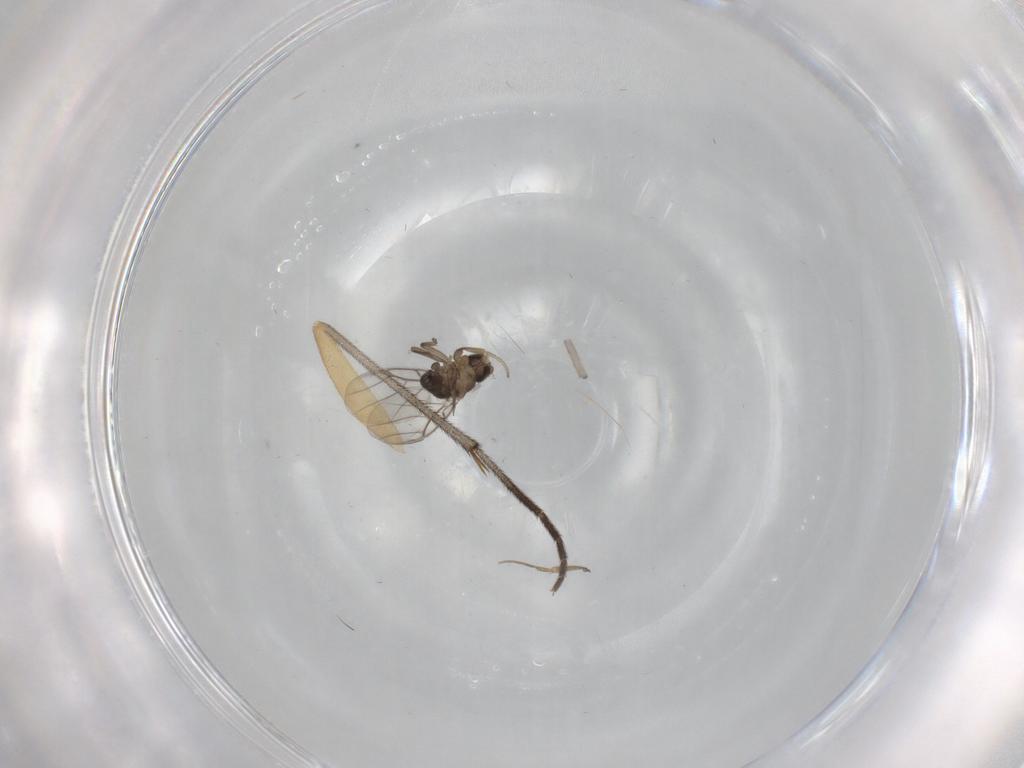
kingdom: Animalia
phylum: Arthropoda
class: Insecta
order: Diptera
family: Phoridae
